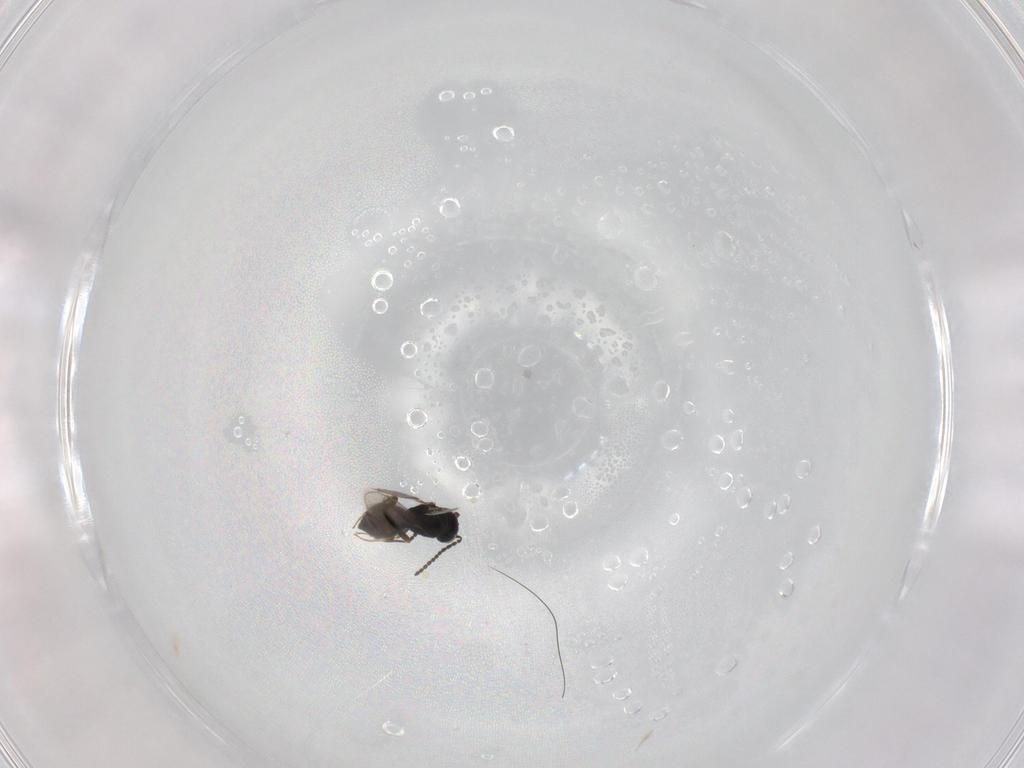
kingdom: Animalia
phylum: Arthropoda
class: Insecta
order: Hymenoptera
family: Scelionidae
